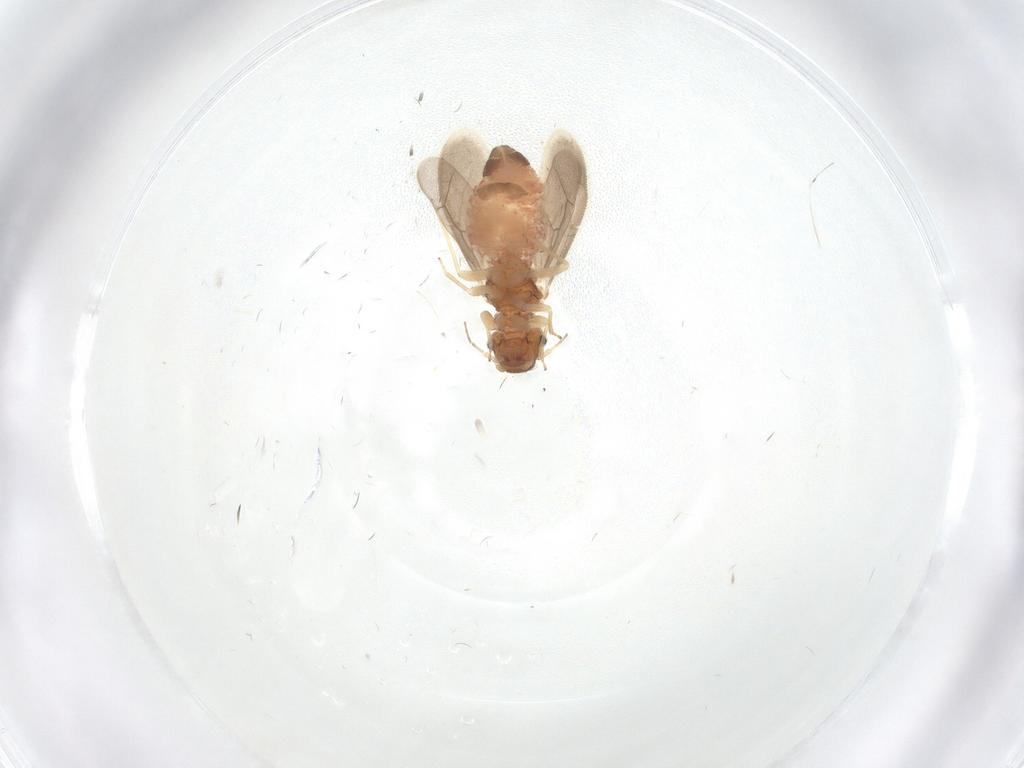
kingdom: Animalia
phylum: Arthropoda
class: Insecta
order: Psocodea
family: Archipsocidae
